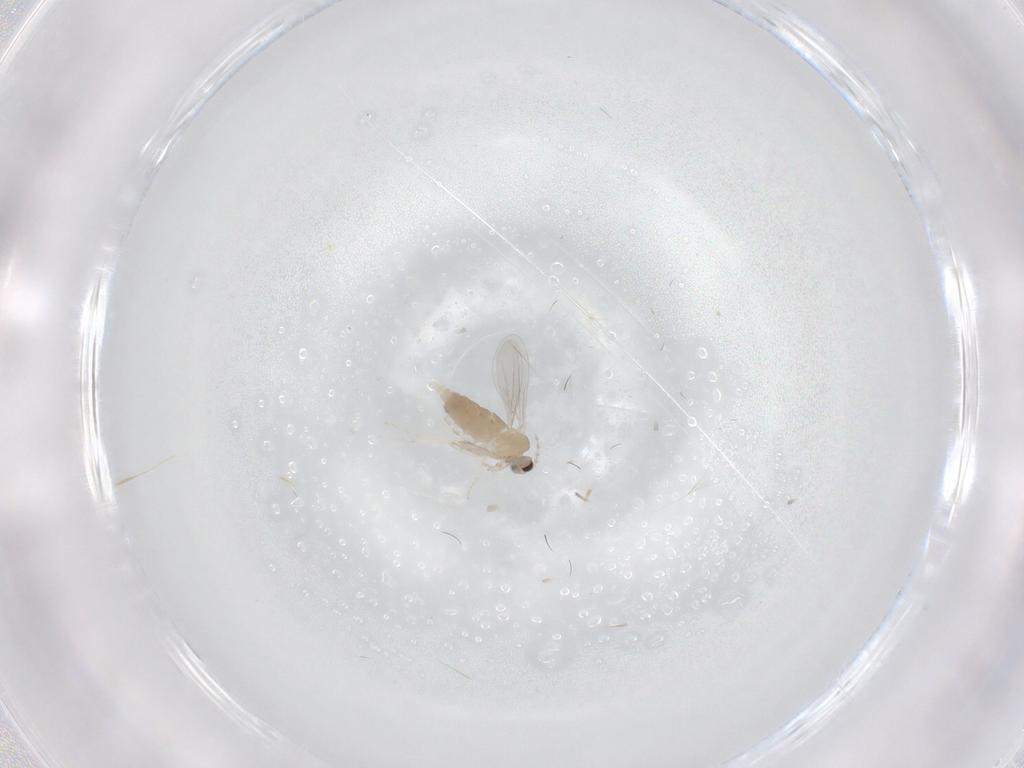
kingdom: Animalia
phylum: Arthropoda
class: Insecta
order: Diptera
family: Cecidomyiidae
